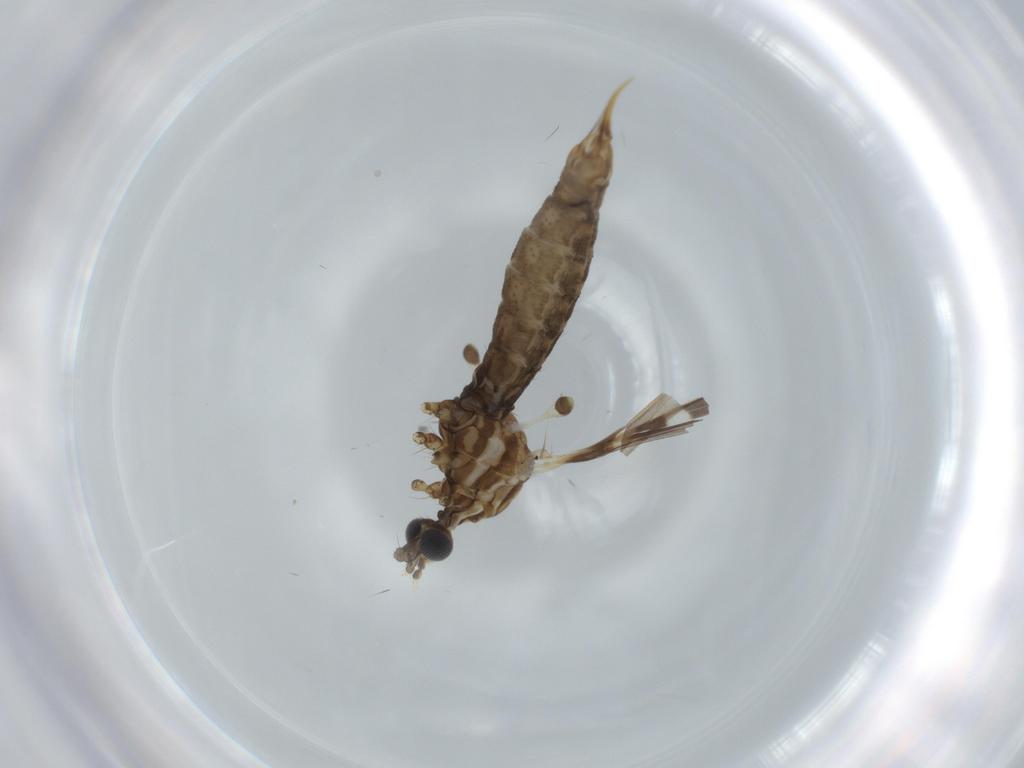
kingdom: Animalia
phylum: Arthropoda
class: Insecta
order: Diptera
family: Limoniidae
